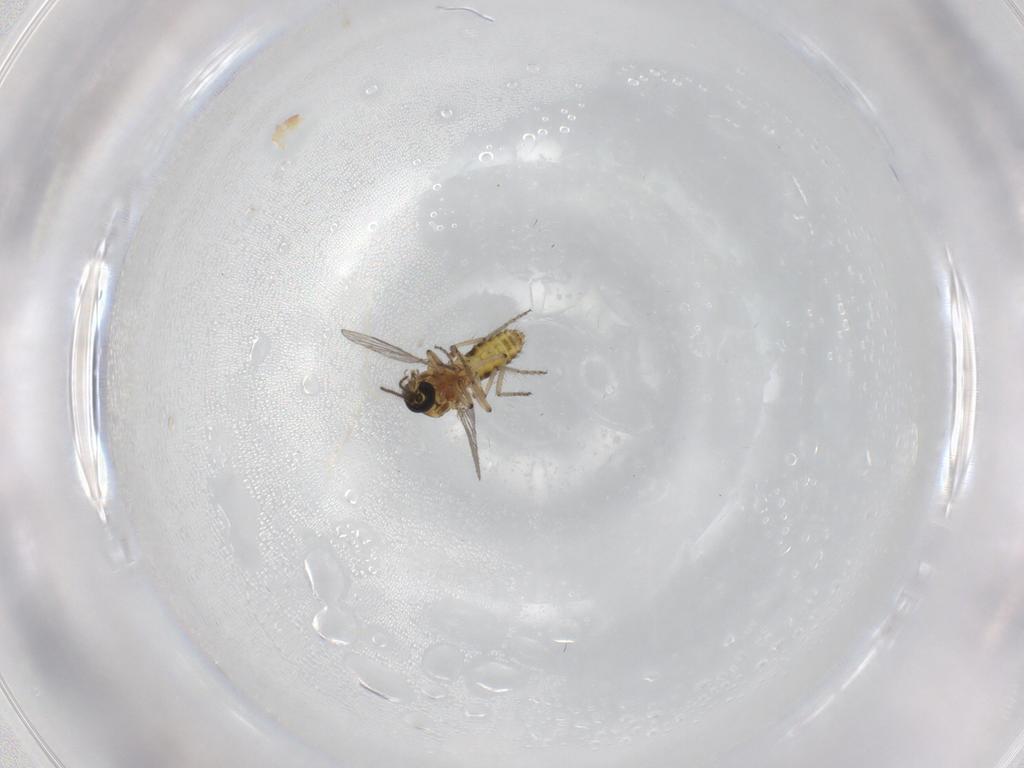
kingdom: Animalia
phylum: Arthropoda
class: Insecta
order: Diptera
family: Ceratopogonidae
